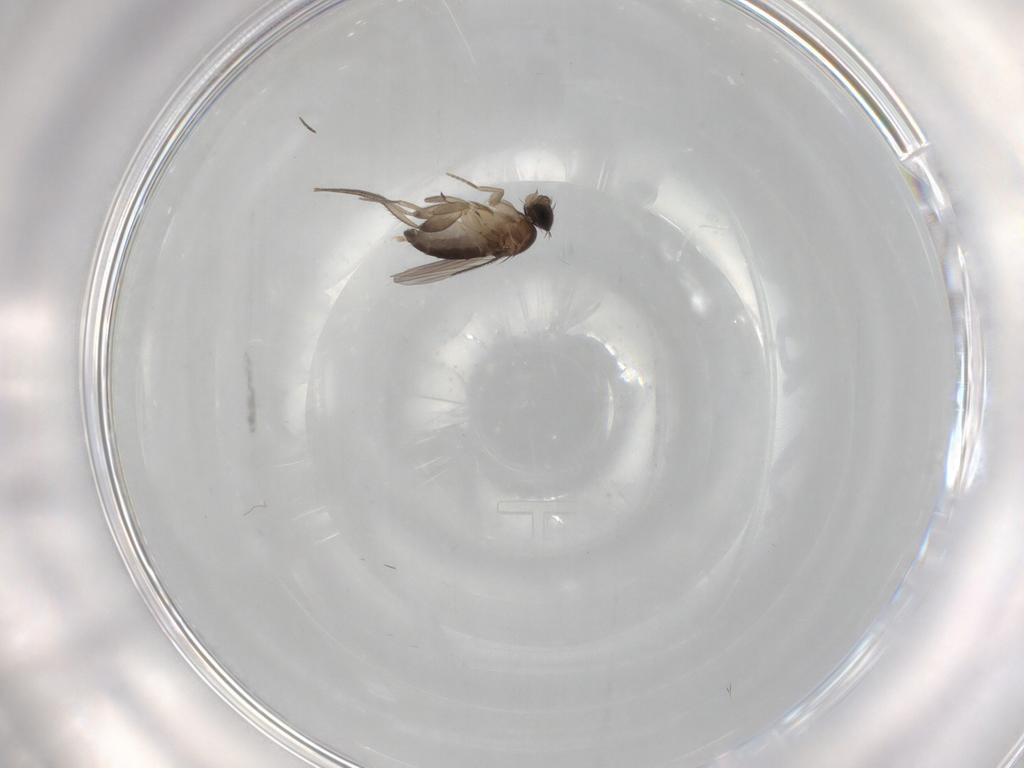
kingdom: Animalia
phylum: Arthropoda
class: Insecta
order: Diptera
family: Phoridae
